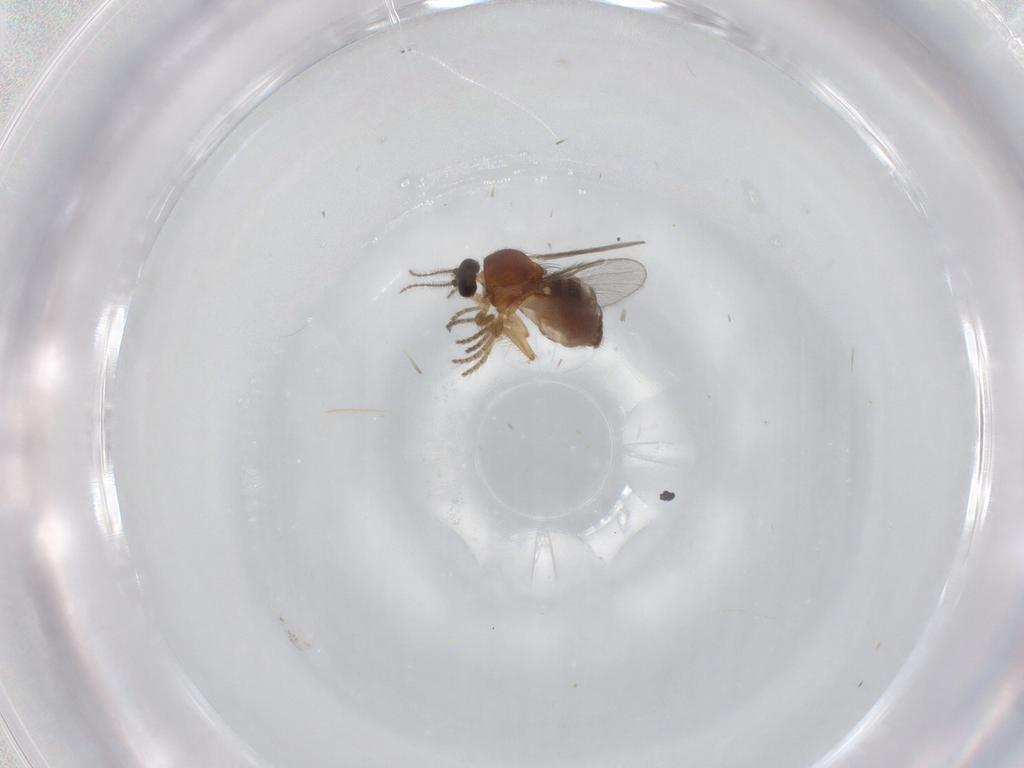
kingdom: Animalia
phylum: Arthropoda
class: Insecta
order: Diptera
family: Ceratopogonidae
